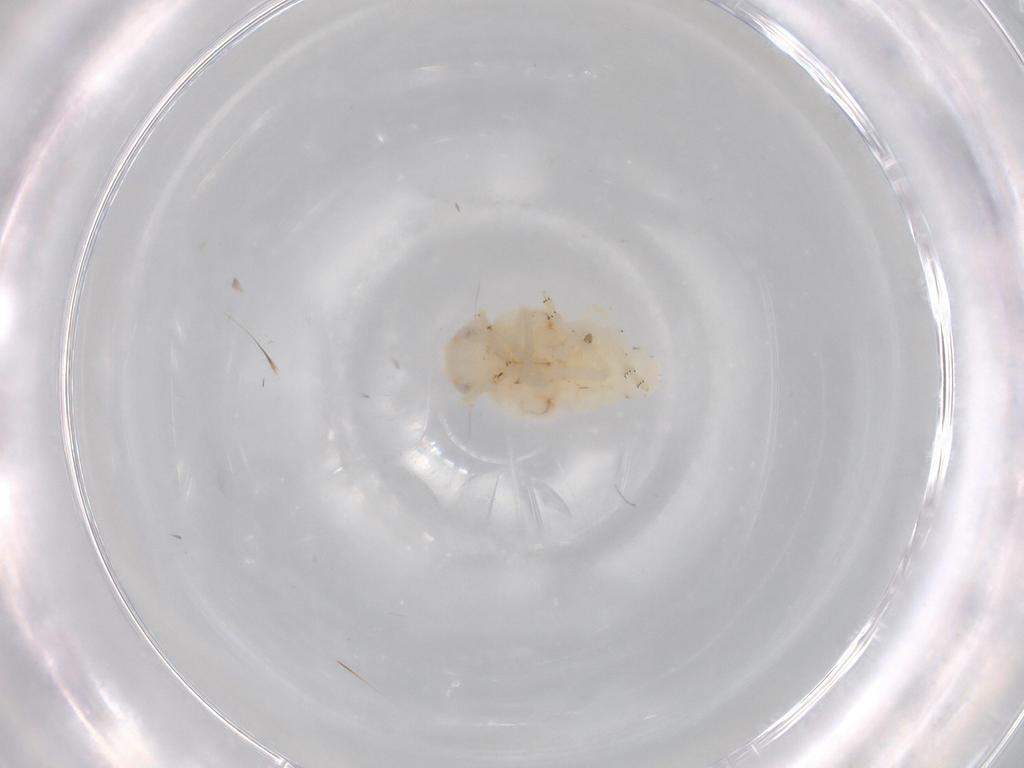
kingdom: Animalia
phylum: Arthropoda
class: Insecta
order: Hemiptera
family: Nogodinidae
